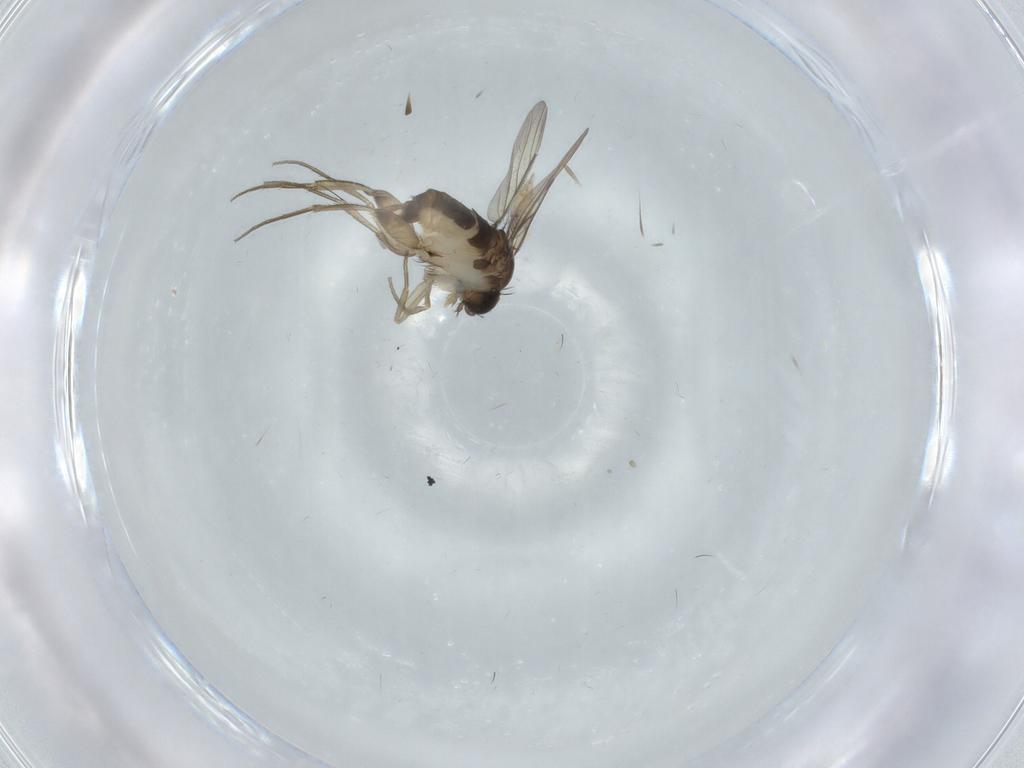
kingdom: Animalia
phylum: Arthropoda
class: Insecta
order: Diptera
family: Phoridae
